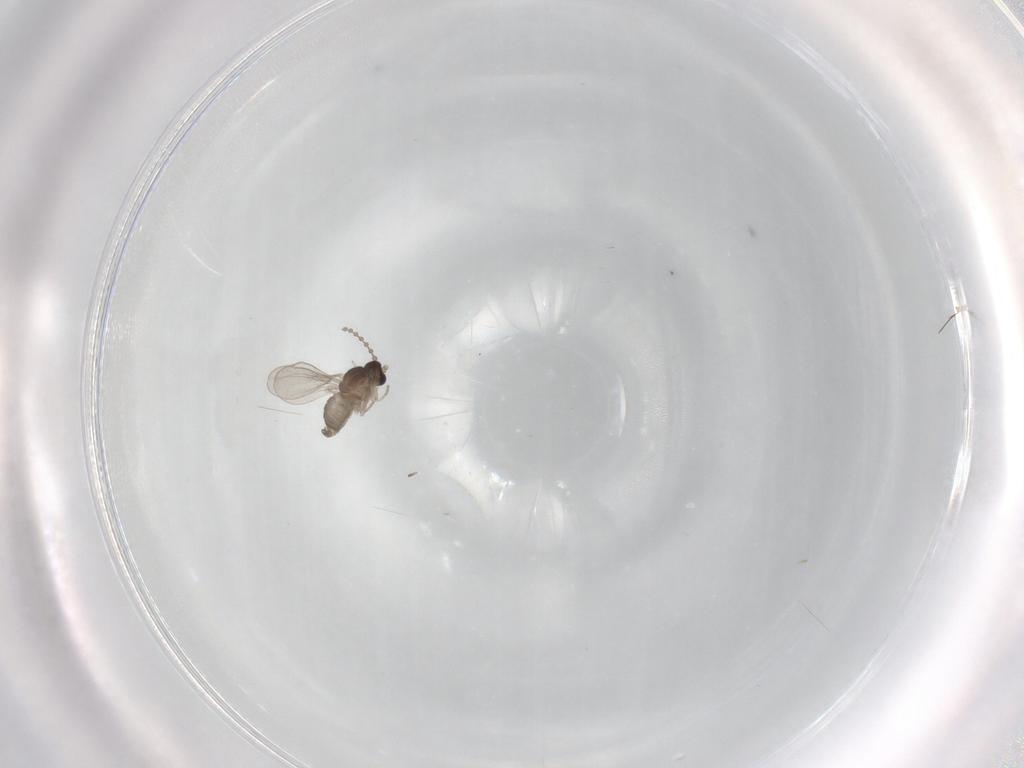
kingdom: Animalia
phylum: Arthropoda
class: Insecta
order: Diptera
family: Cecidomyiidae
